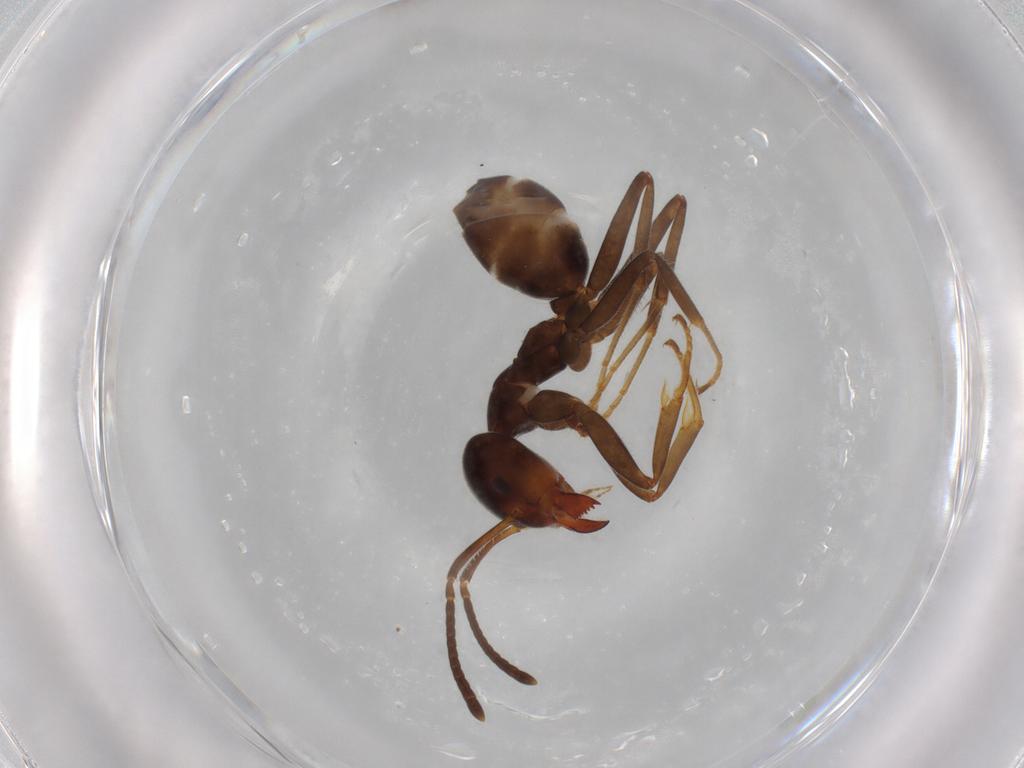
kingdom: Animalia
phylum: Arthropoda
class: Insecta
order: Hymenoptera
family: Formicidae
